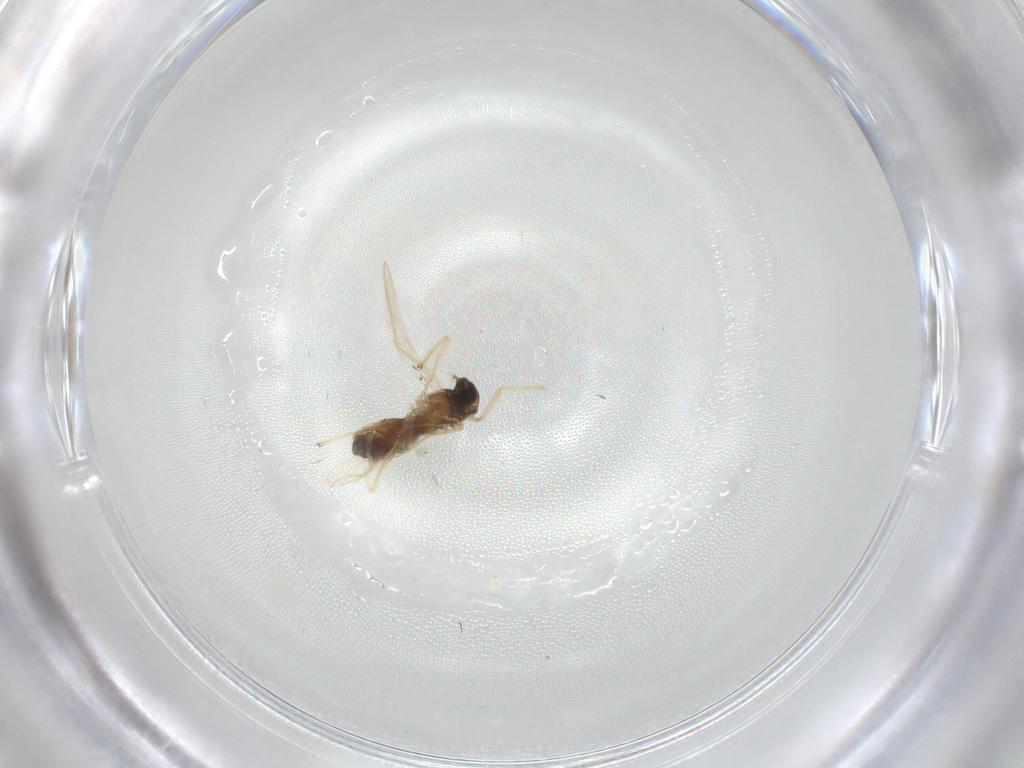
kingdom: Animalia
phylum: Arthropoda
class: Insecta
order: Diptera
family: Chironomidae
